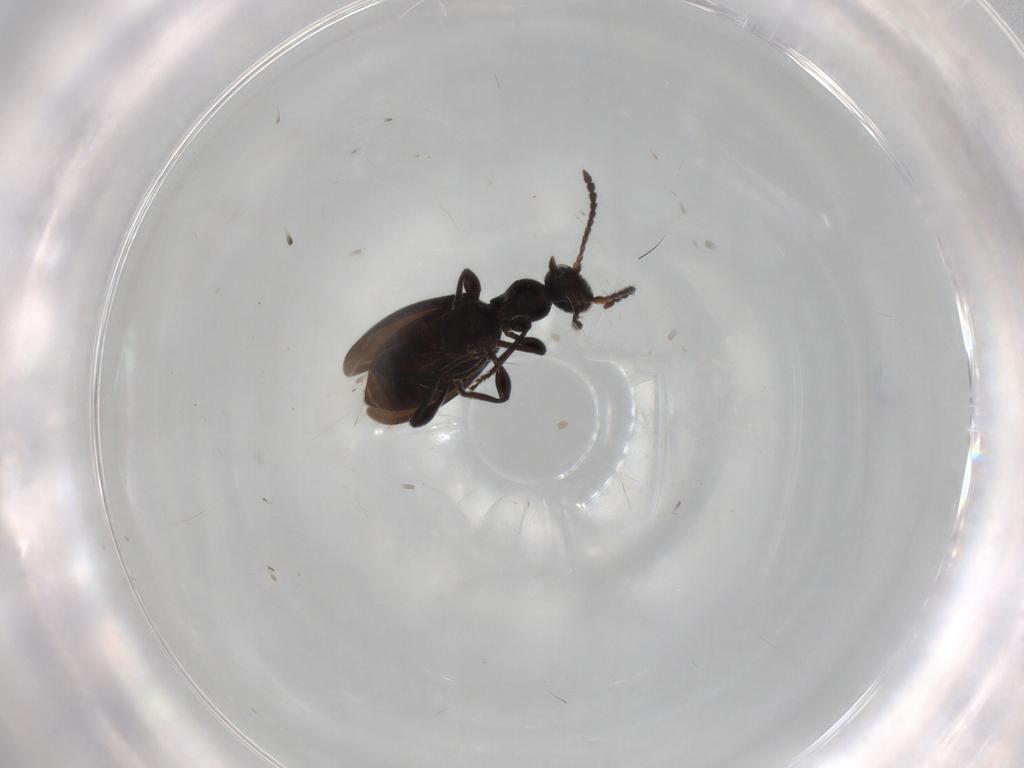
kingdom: Animalia
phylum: Arthropoda
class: Insecta
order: Coleoptera
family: Anthicidae
